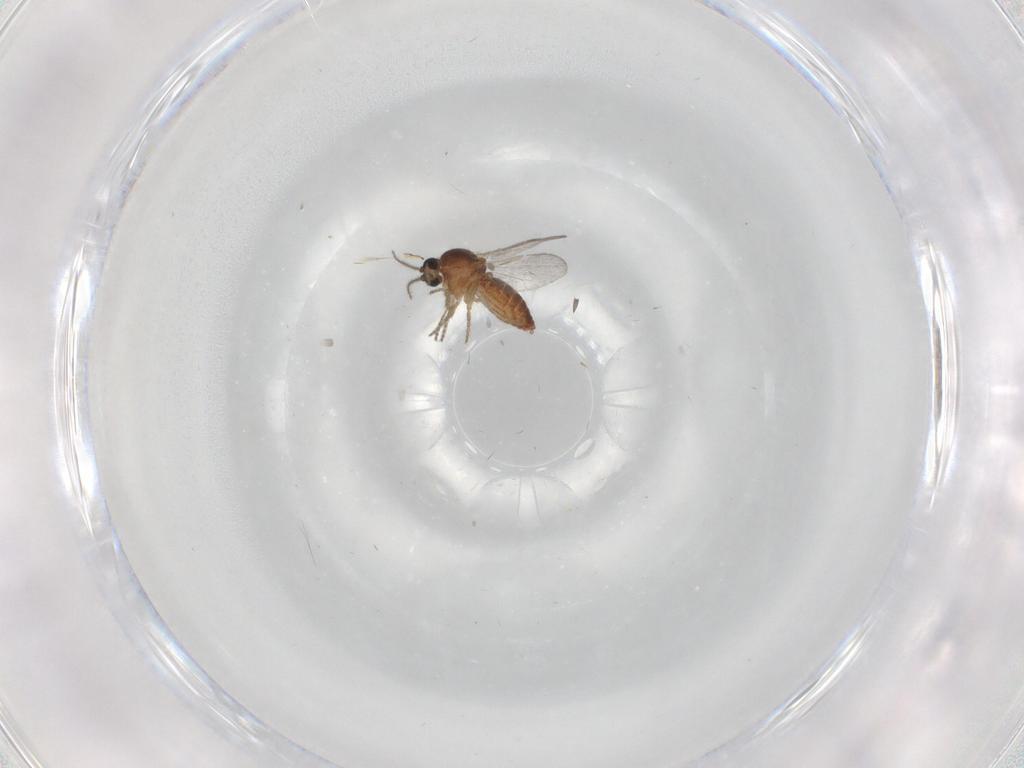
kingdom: Animalia
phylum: Arthropoda
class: Insecta
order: Diptera
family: Ceratopogonidae
